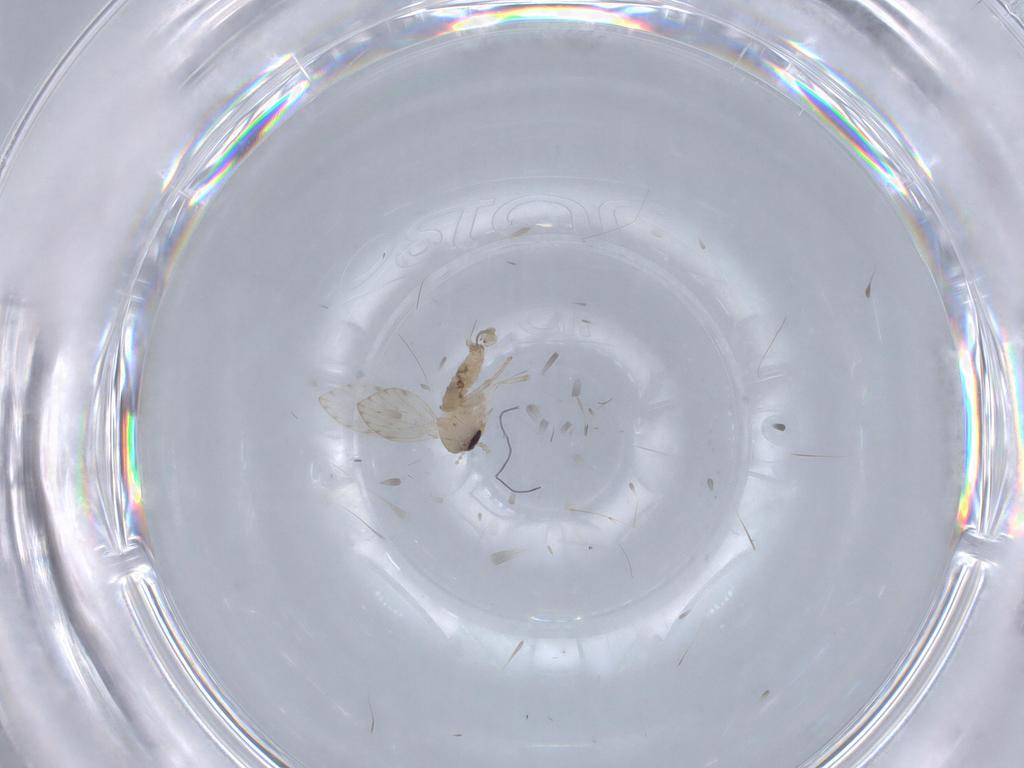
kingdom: Animalia
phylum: Arthropoda
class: Insecta
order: Diptera
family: Psychodidae
